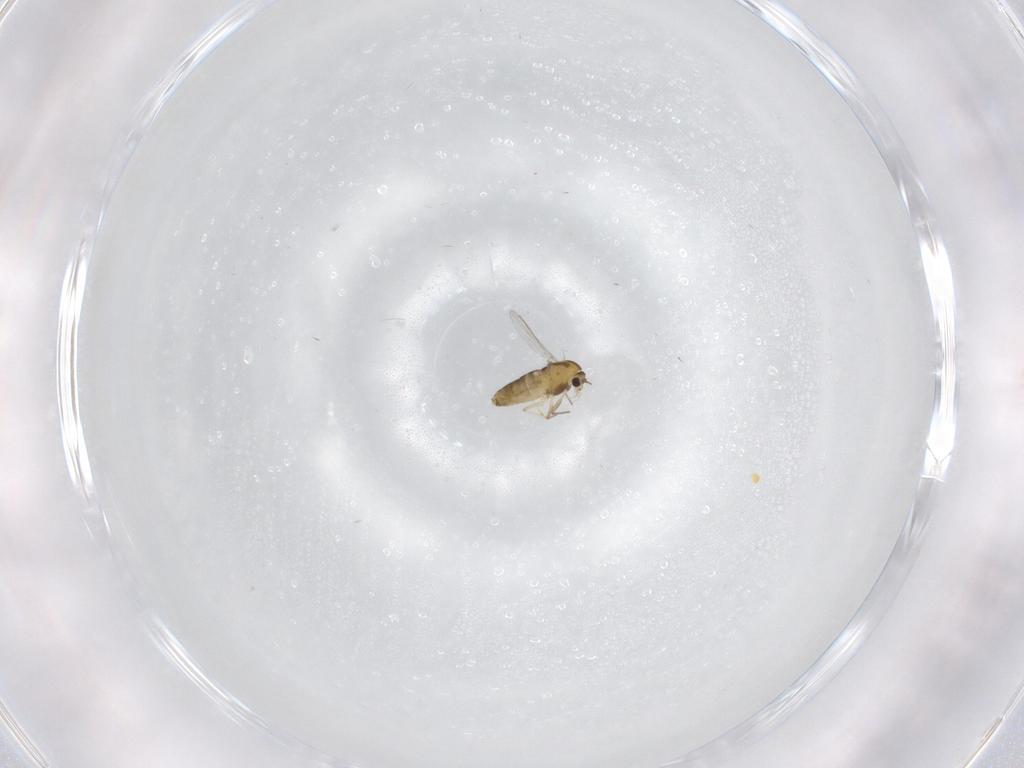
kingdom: Animalia
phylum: Arthropoda
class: Insecta
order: Diptera
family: Chironomidae
